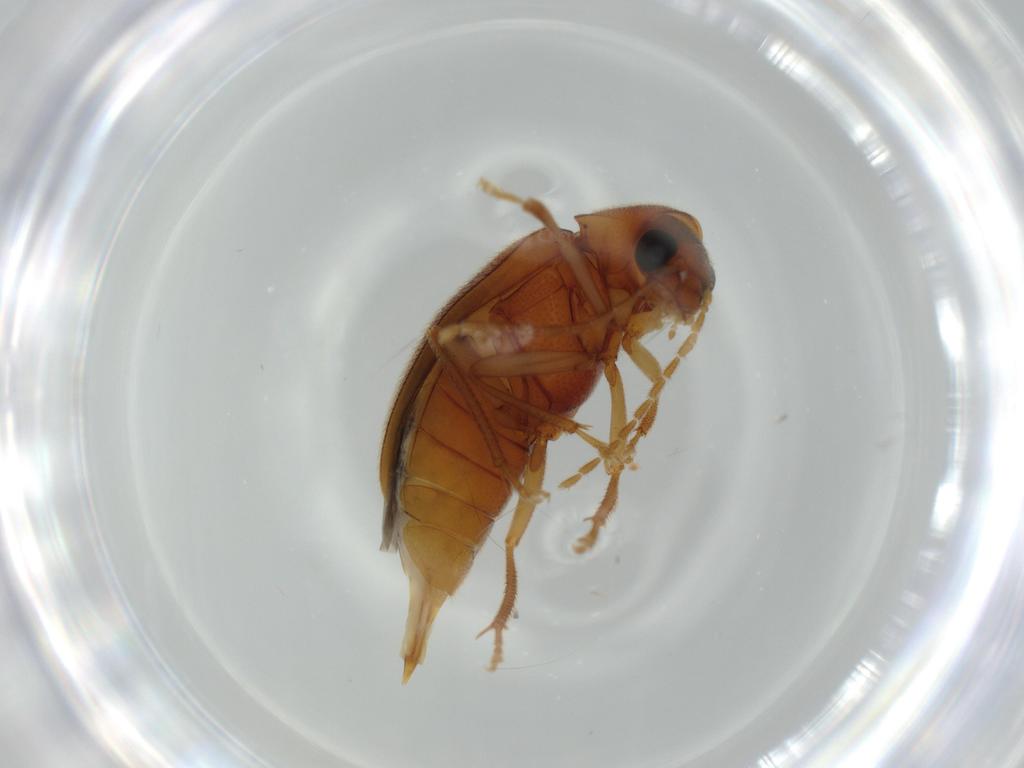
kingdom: Animalia
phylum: Arthropoda
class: Insecta
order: Coleoptera
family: Ptilodactylidae
